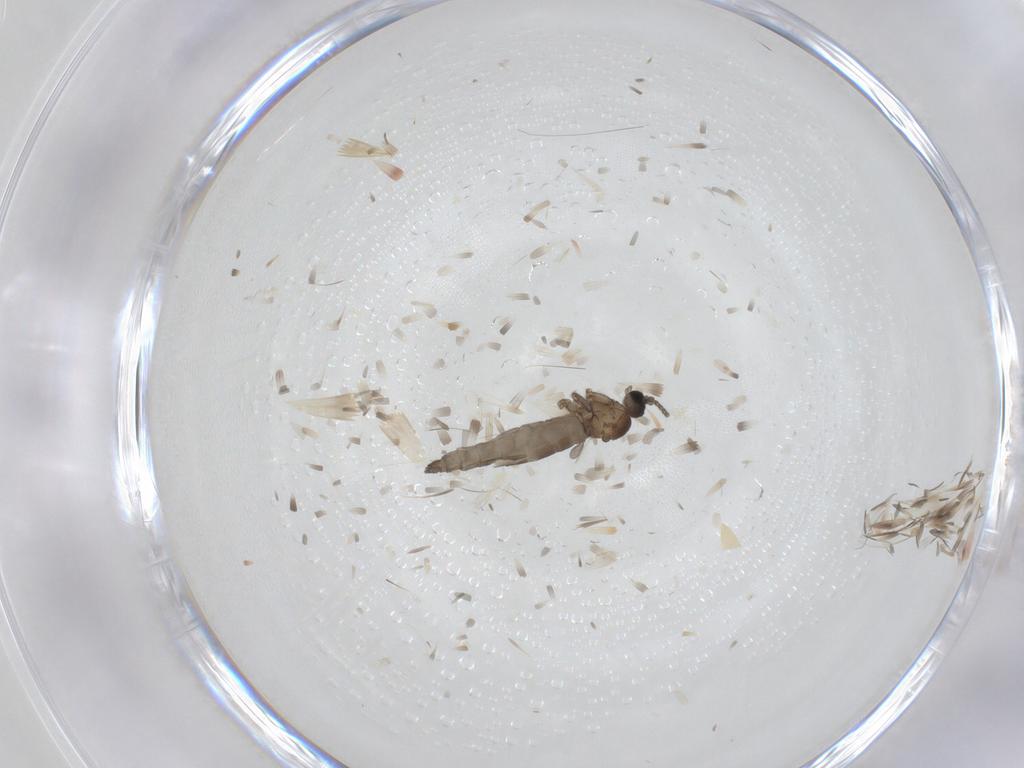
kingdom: Animalia
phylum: Arthropoda
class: Insecta
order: Diptera
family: Sciaridae
